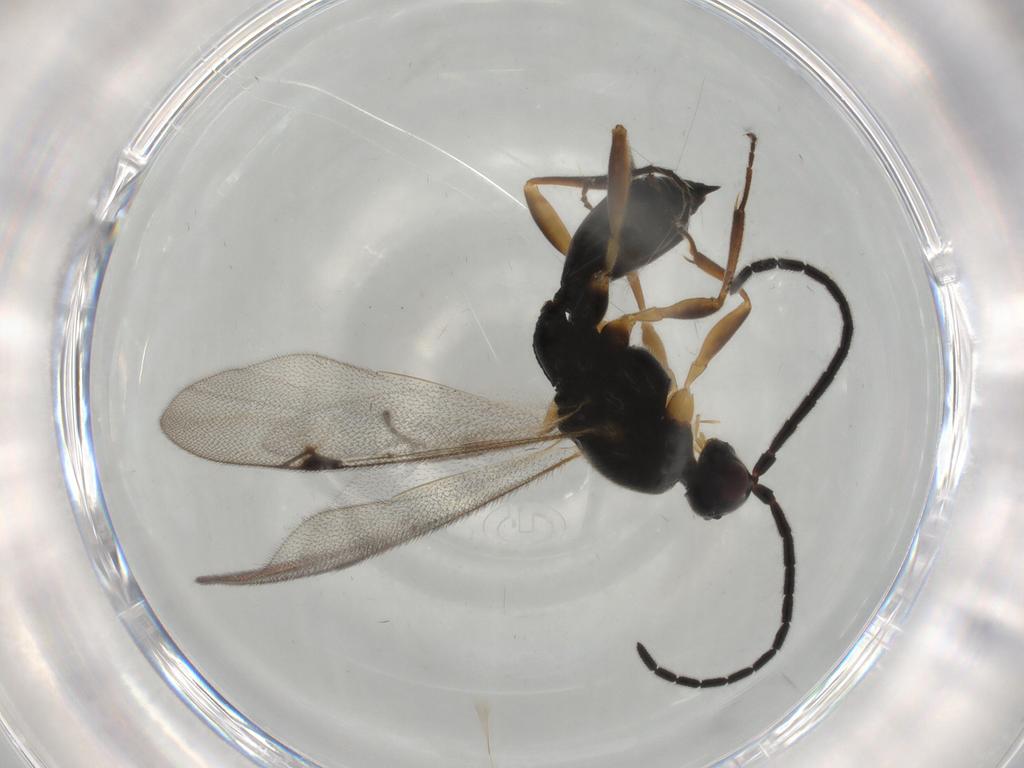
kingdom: Animalia
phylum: Arthropoda
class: Insecta
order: Hymenoptera
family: Proctotrupidae
